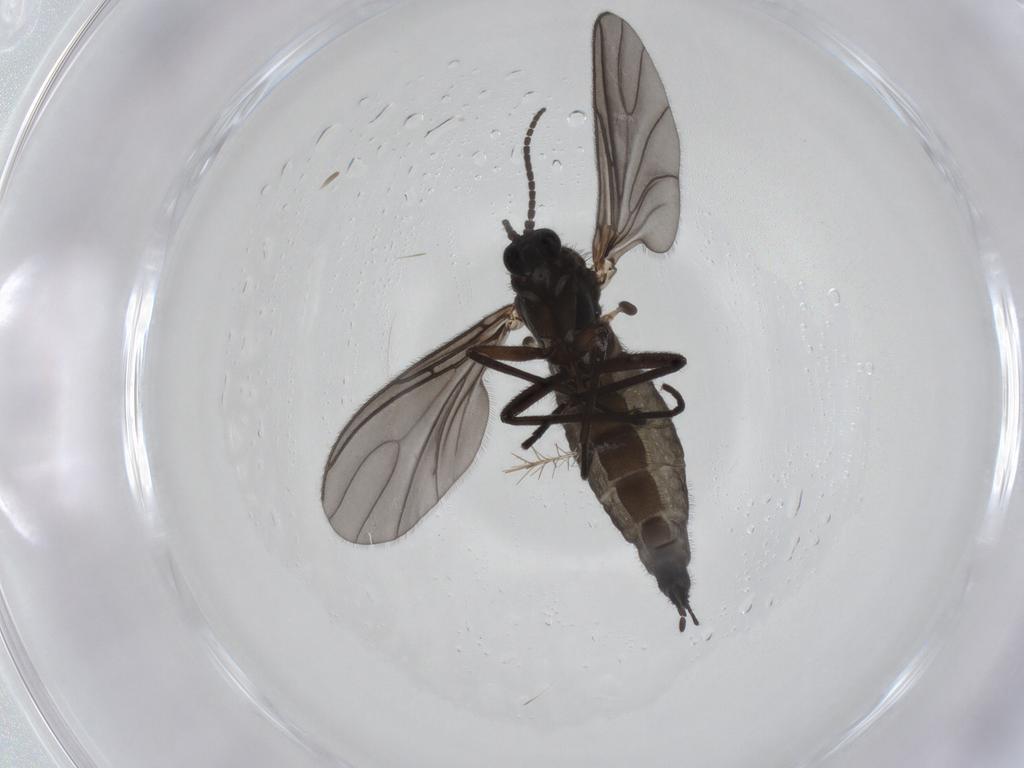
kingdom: Animalia
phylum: Arthropoda
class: Insecta
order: Diptera
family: Sciaridae
